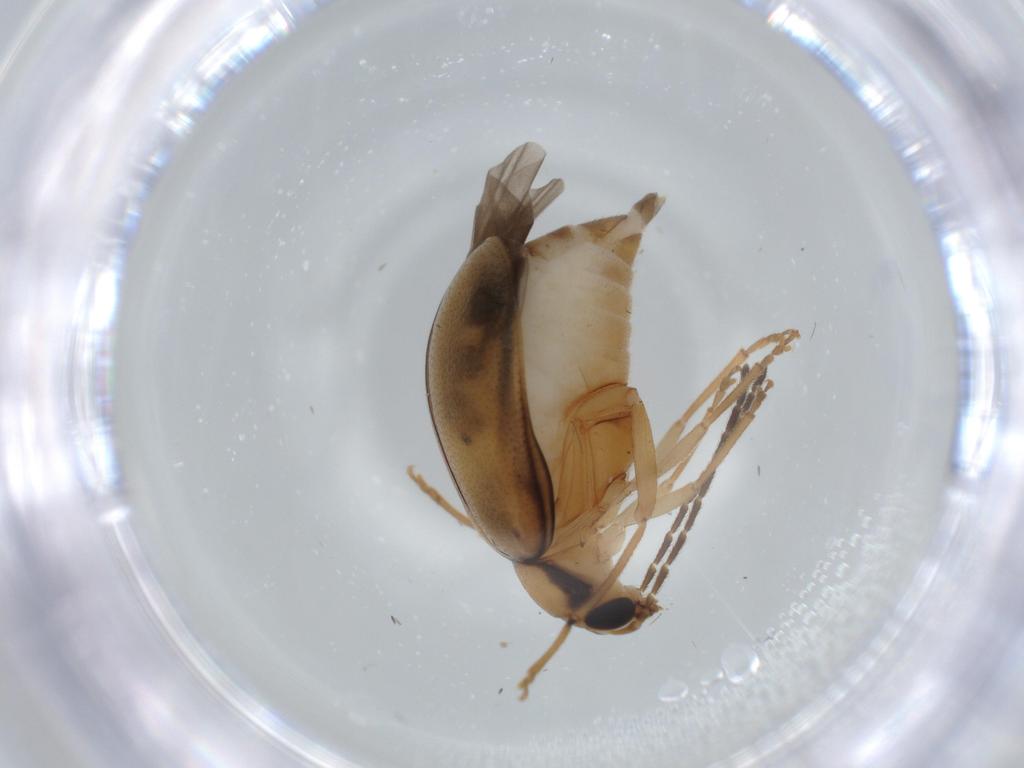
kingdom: Animalia
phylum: Arthropoda
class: Insecta
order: Coleoptera
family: Chrysomelidae
